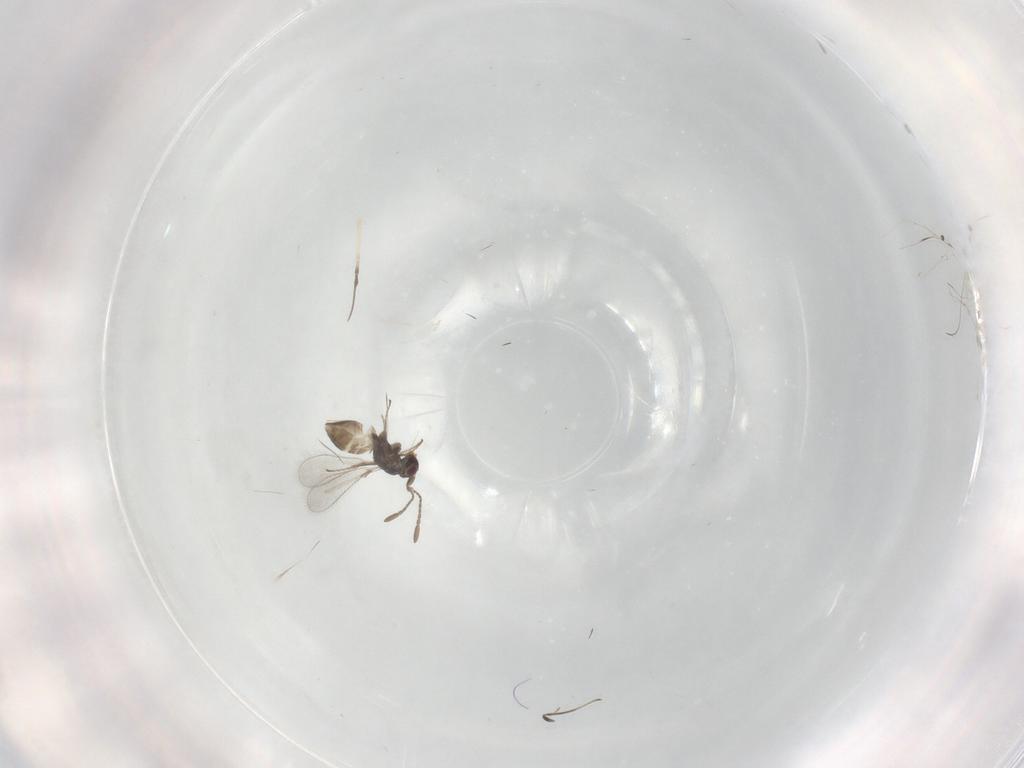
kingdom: Animalia
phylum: Arthropoda
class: Insecta
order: Hymenoptera
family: Mymaridae
